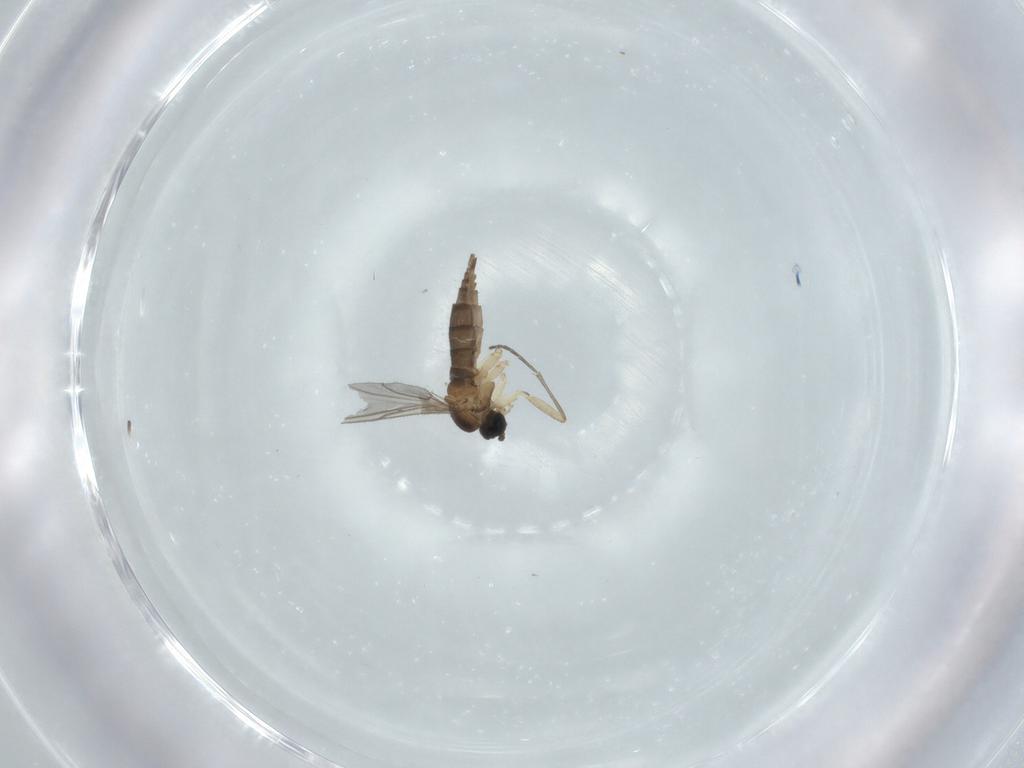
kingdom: Animalia
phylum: Arthropoda
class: Insecta
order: Diptera
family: Sciaridae
